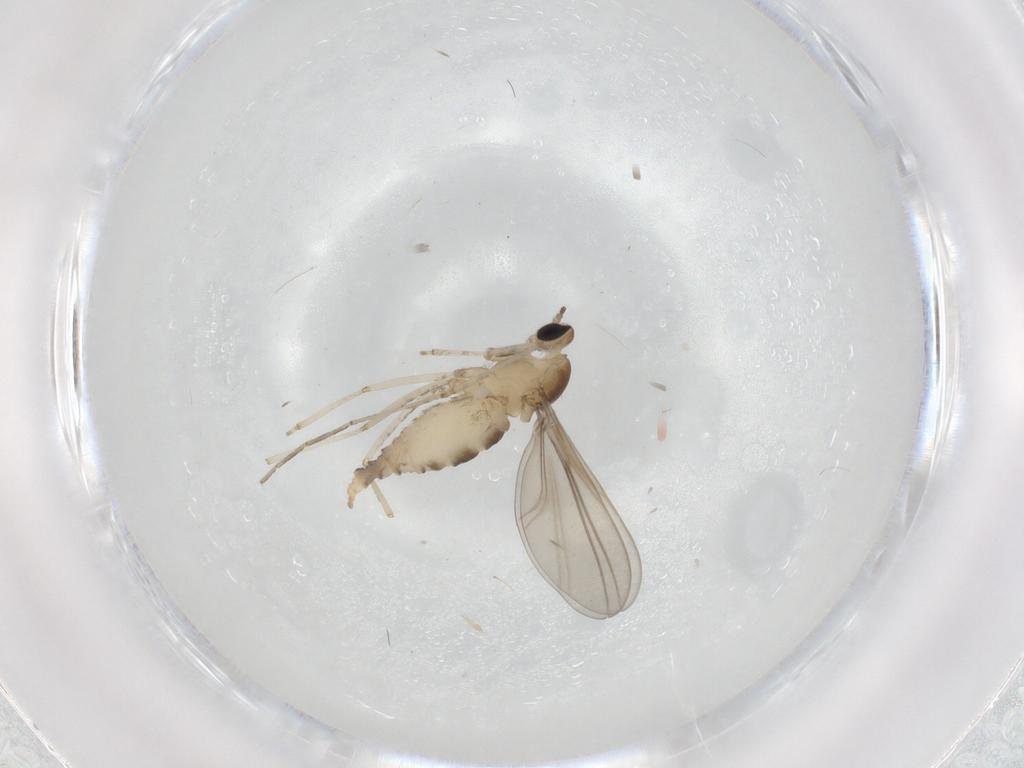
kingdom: Animalia
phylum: Arthropoda
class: Insecta
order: Diptera
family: Cecidomyiidae
